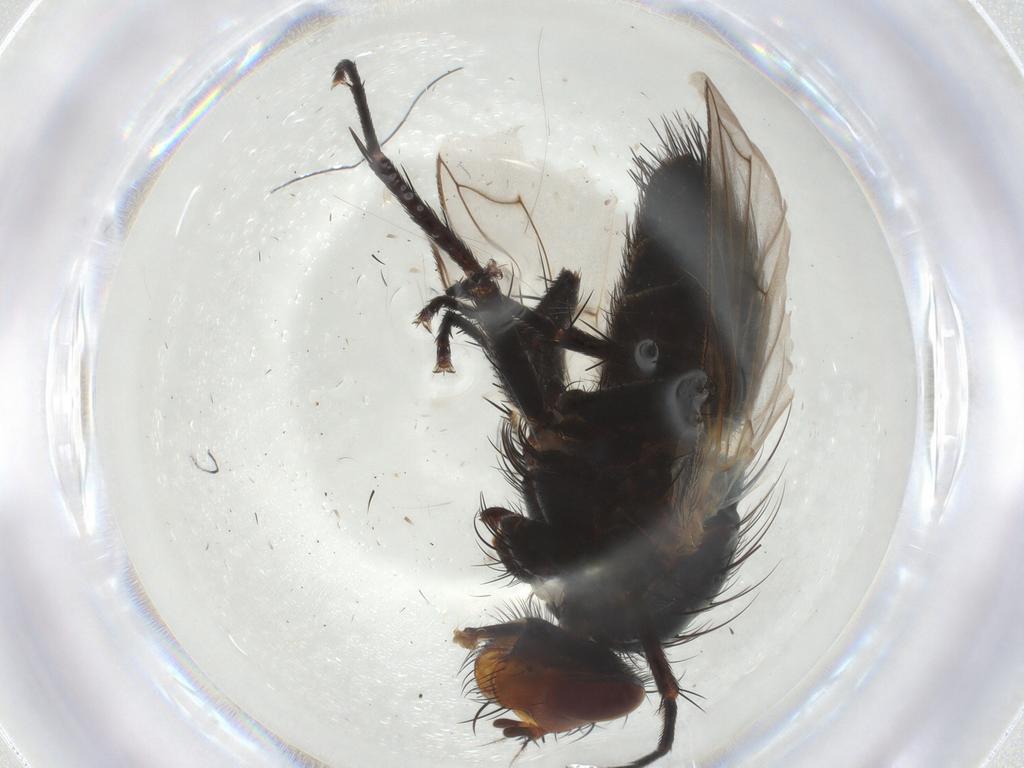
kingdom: Animalia
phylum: Arthropoda
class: Insecta
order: Diptera
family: Tachinidae
